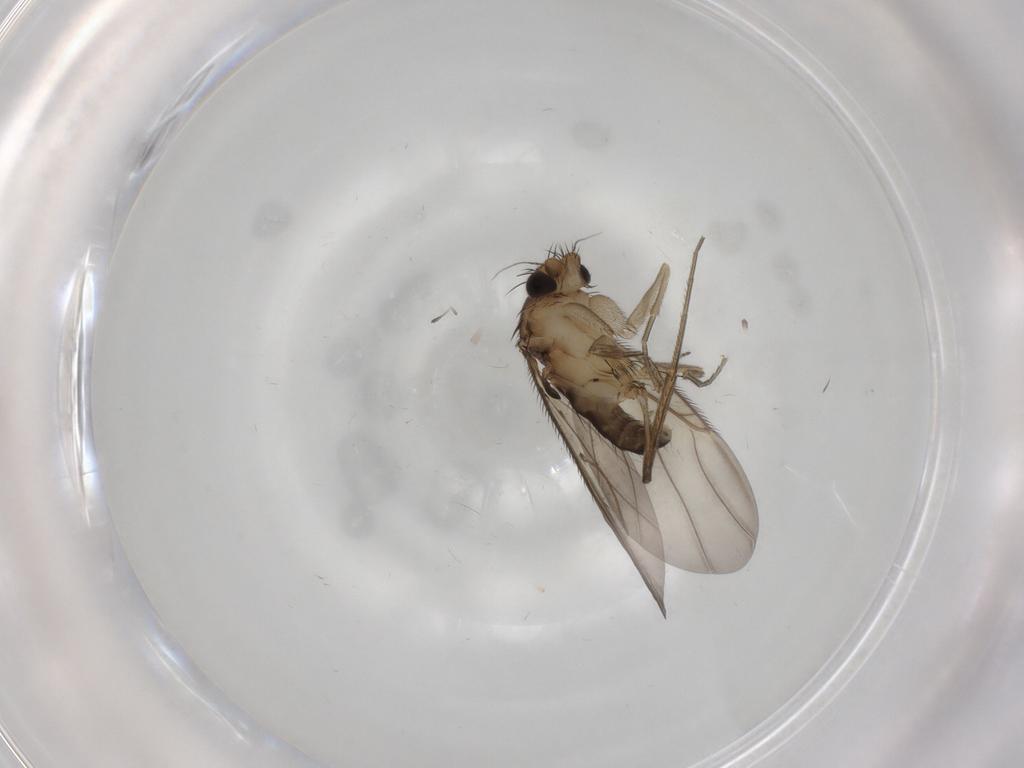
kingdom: Animalia
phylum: Arthropoda
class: Insecta
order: Diptera
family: Phoridae
